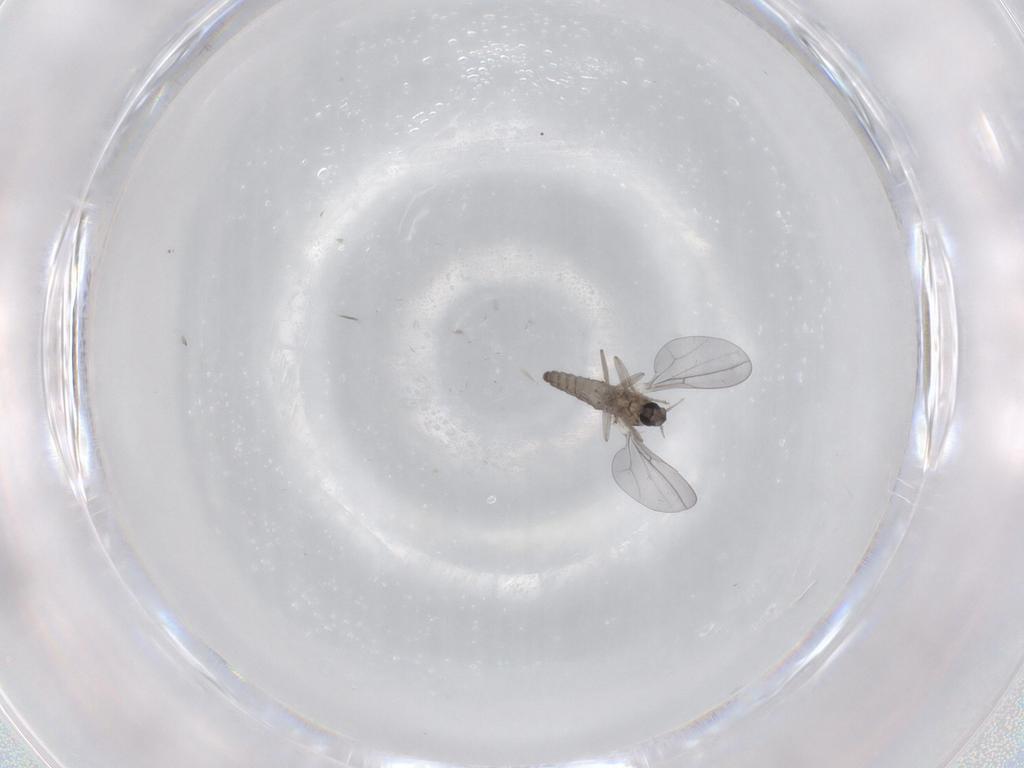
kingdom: Animalia
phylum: Arthropoda
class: Insecta
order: Diptera
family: Cecidomyiidae
